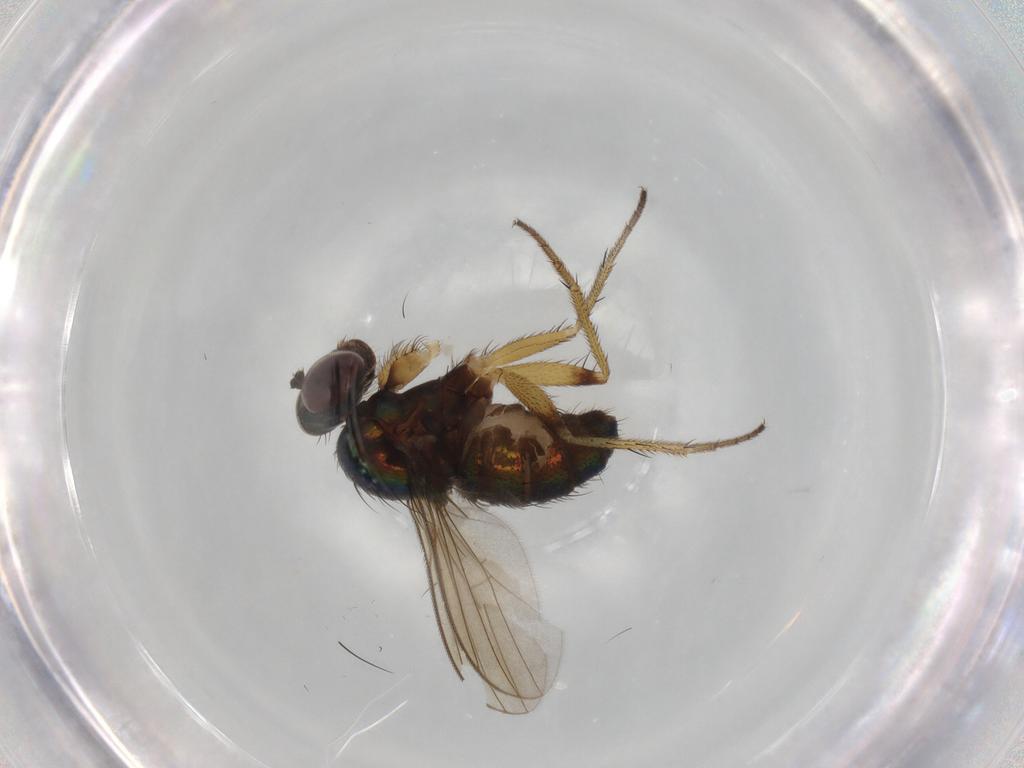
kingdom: Animalia
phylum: Arthropoda
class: Insecta
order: Diptera
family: Dolichopodidae
